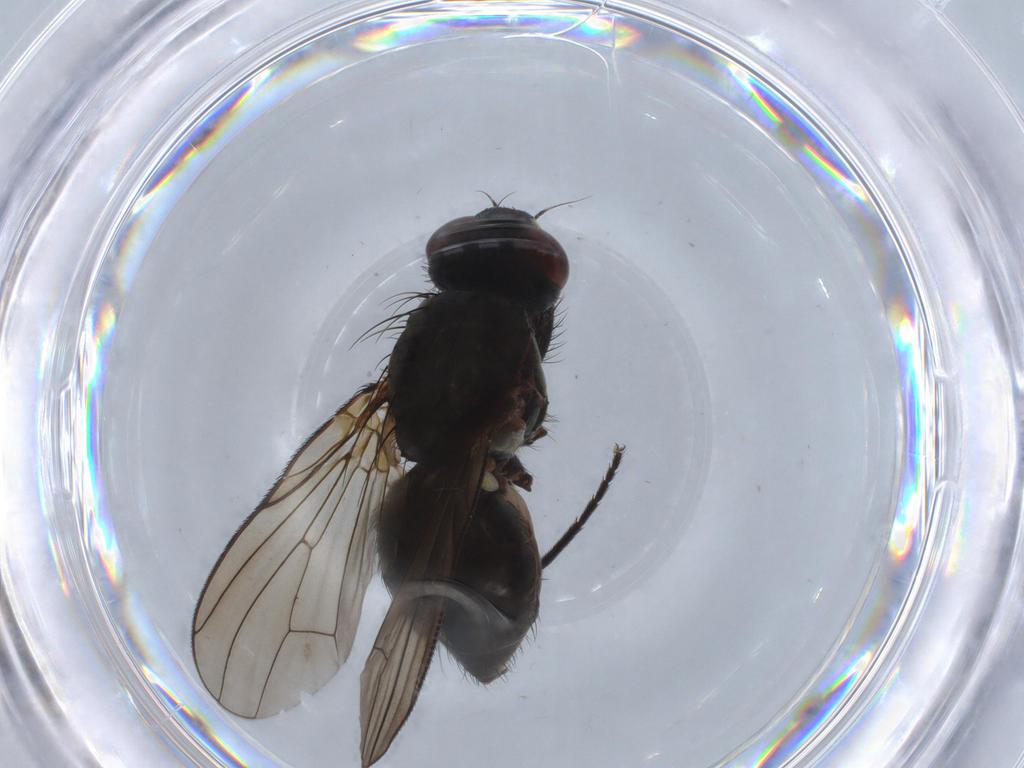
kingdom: Animalia
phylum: Arthropoda
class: Insecta
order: Diptera
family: Anthomyiidae
